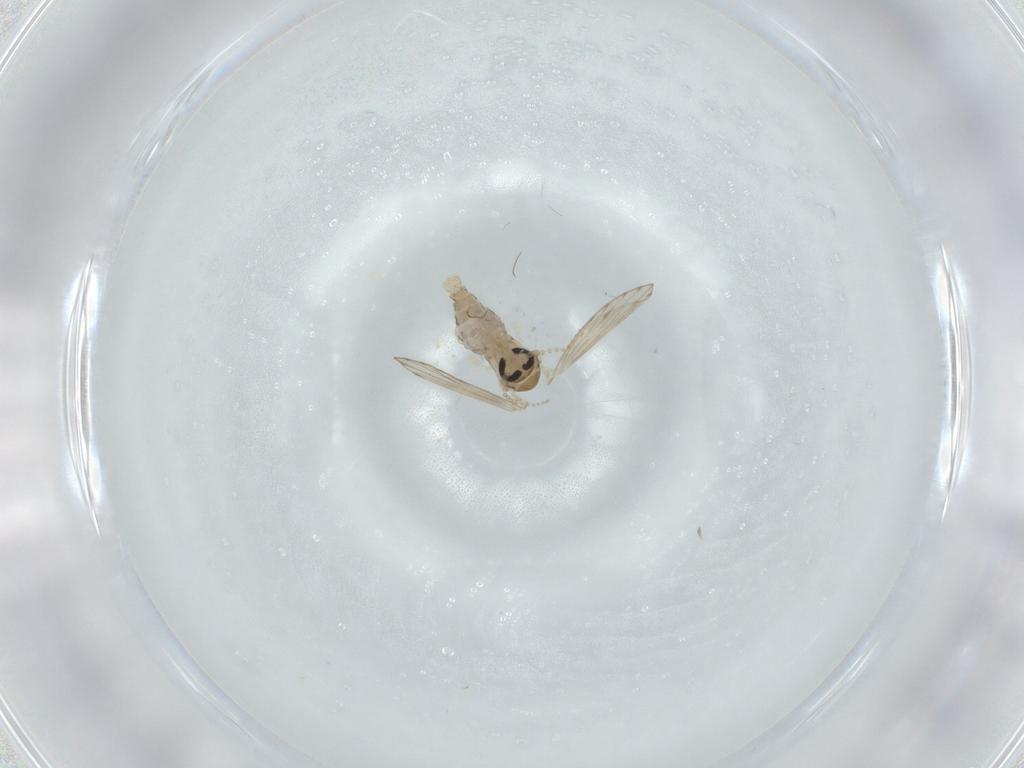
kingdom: Animalia
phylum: Arthropoda
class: Insecta
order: Diptera
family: Psychodidae
